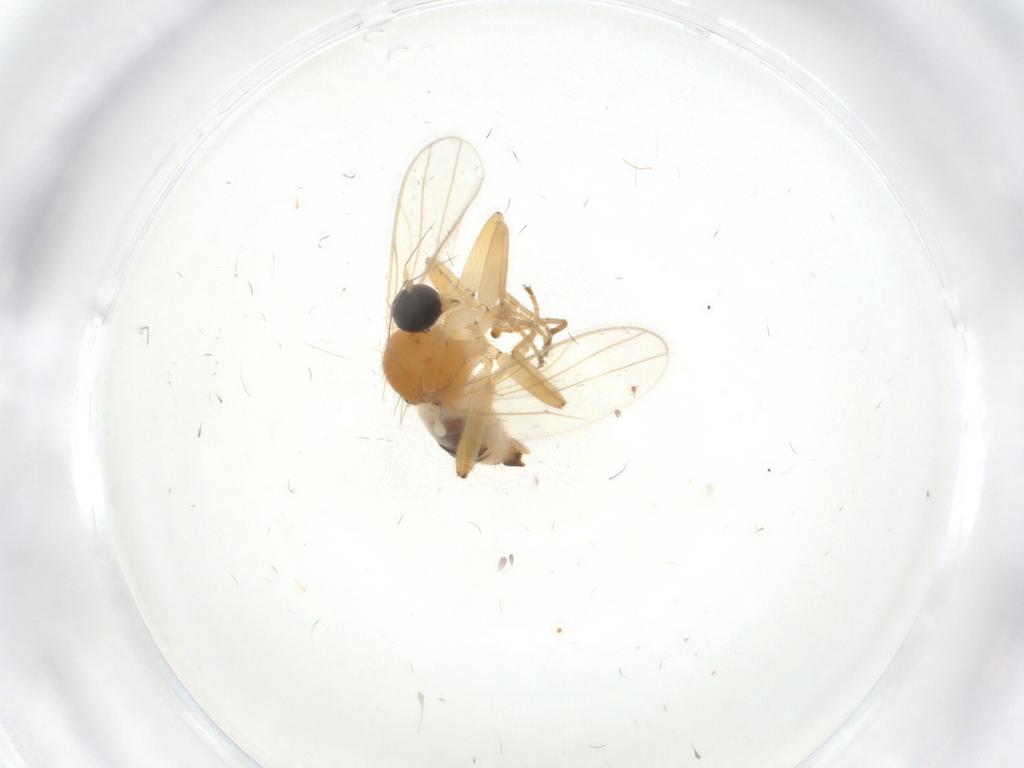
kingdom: Animalia
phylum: Arthropoda
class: Insecta
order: Diptera
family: Hybotidae
